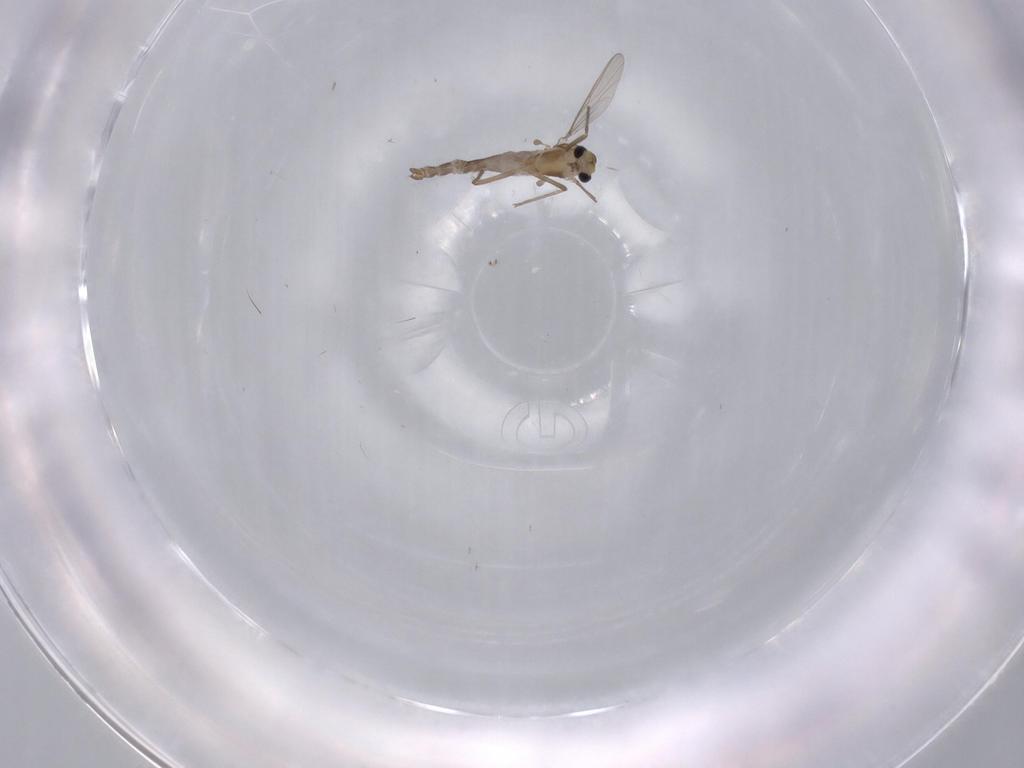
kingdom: Animalia
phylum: Arthropoda
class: Insecta
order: Diptera
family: Chironomidae
